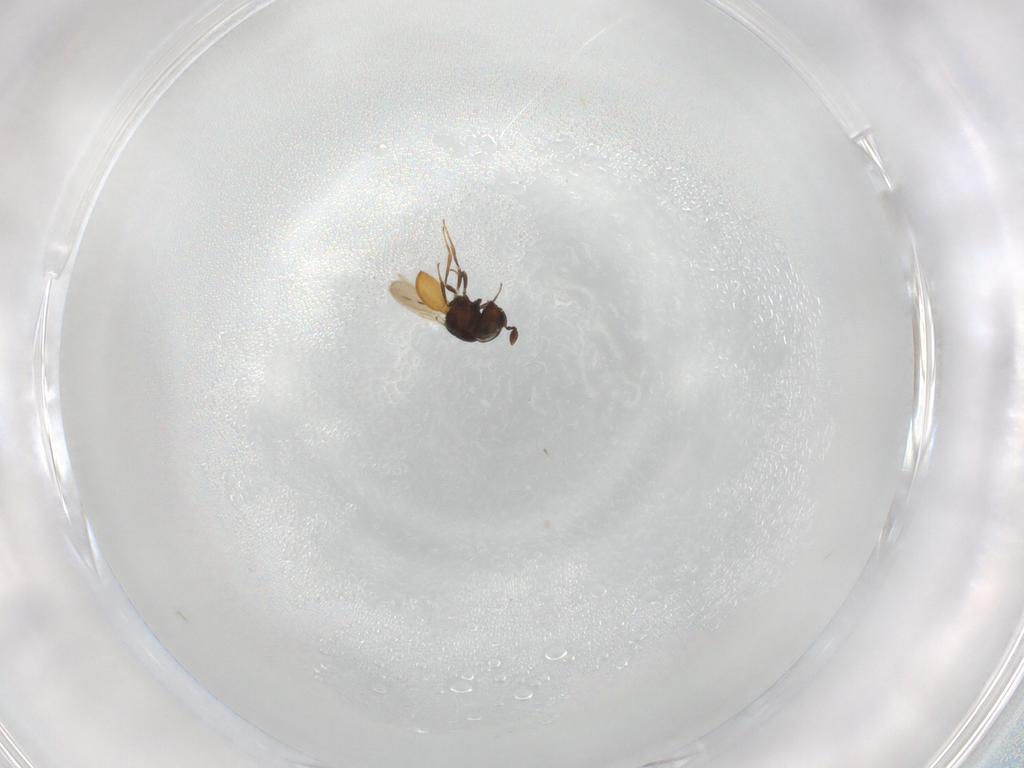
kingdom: Animalia
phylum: Arthropoda
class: Insecta
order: Hymenoptera
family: Scelionidae
